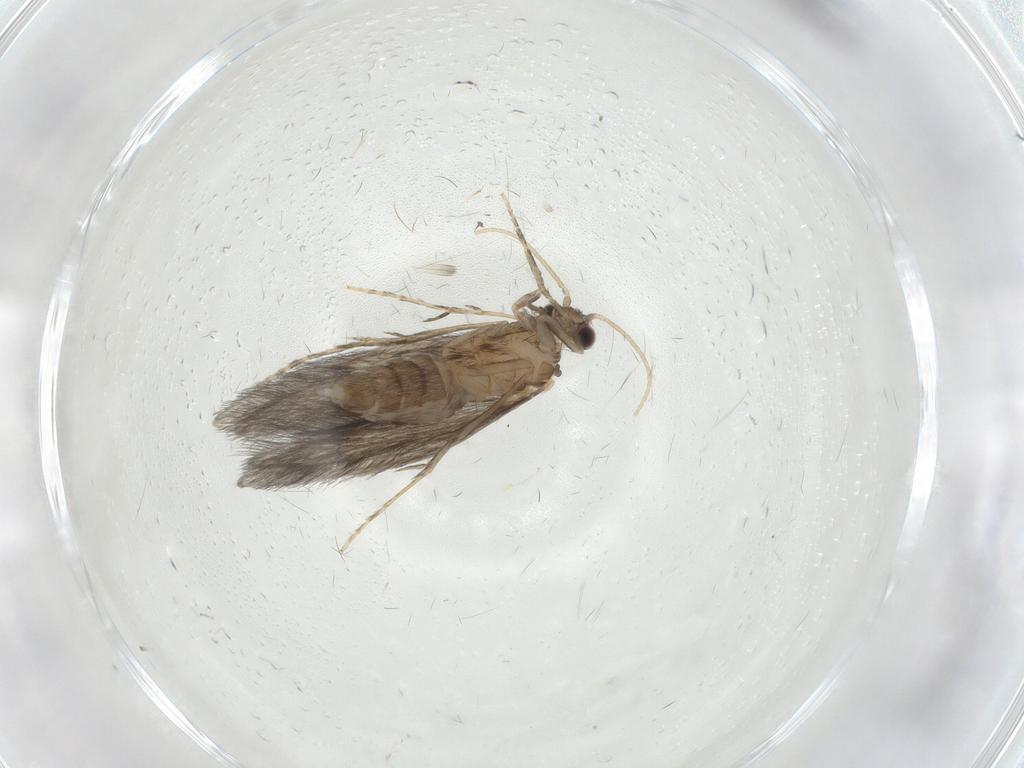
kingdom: Animalia
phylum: Arthropoda
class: Insecta
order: Trichoptera
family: Hydroptilidae
